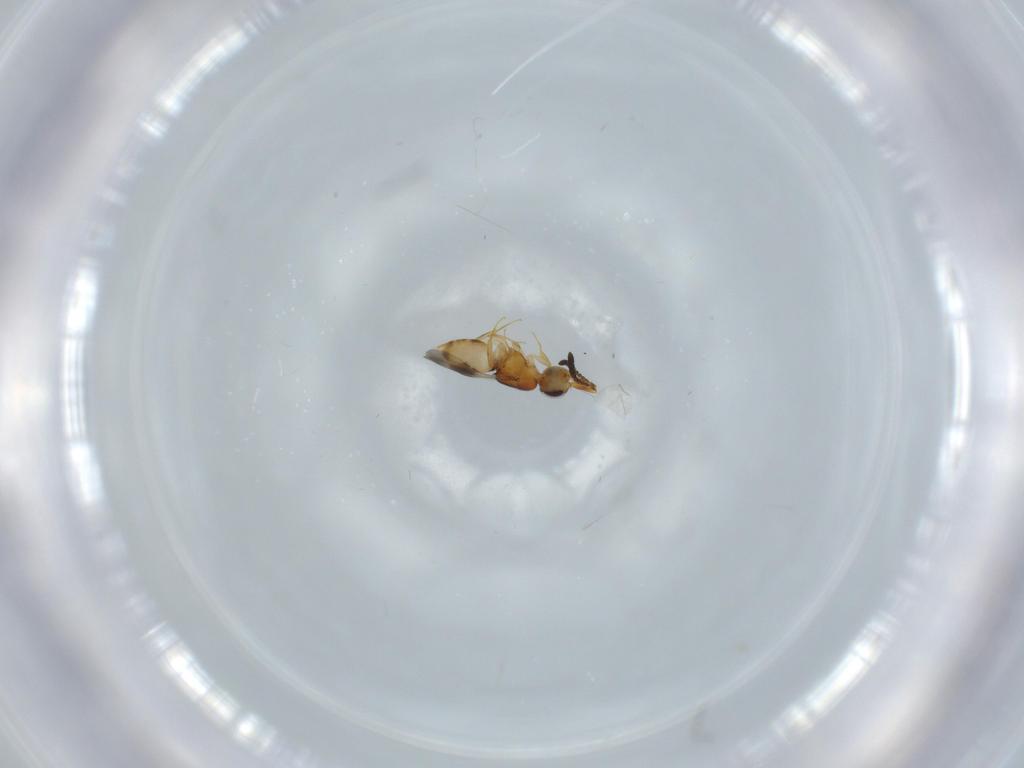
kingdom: Animalia
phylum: Arthropoda
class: Insecta
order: Hymenoptera
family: Ceraphronidae
